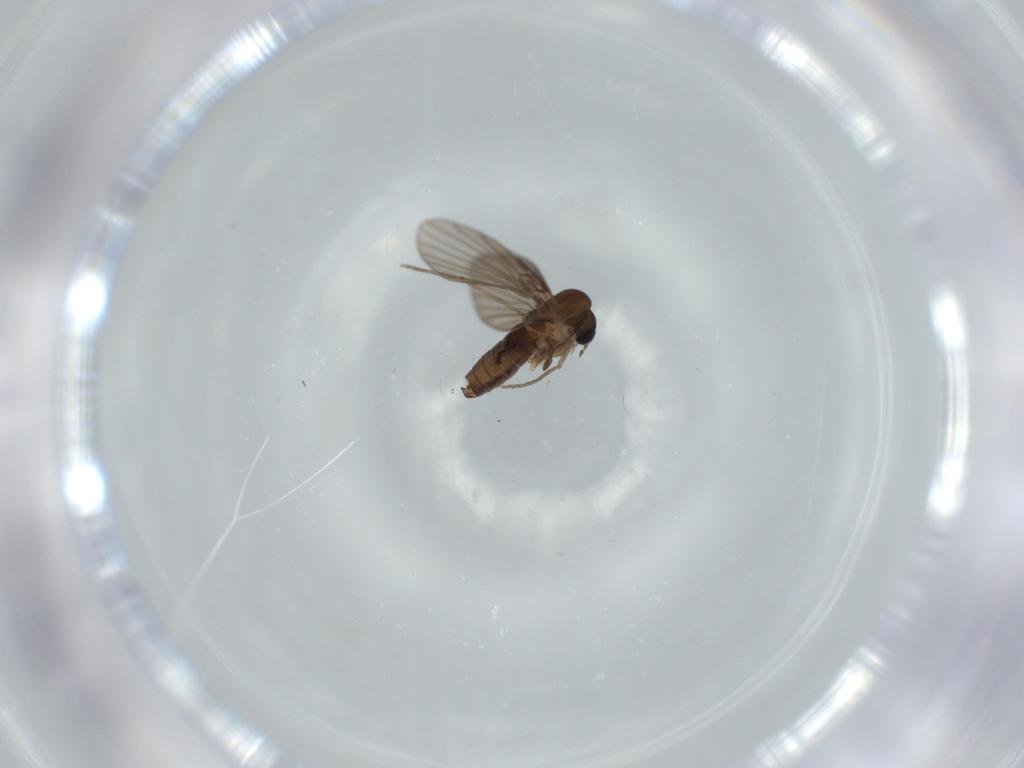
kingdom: Animalia
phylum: Arthropoda
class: Insecta
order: Diptera
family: Psychodidae
